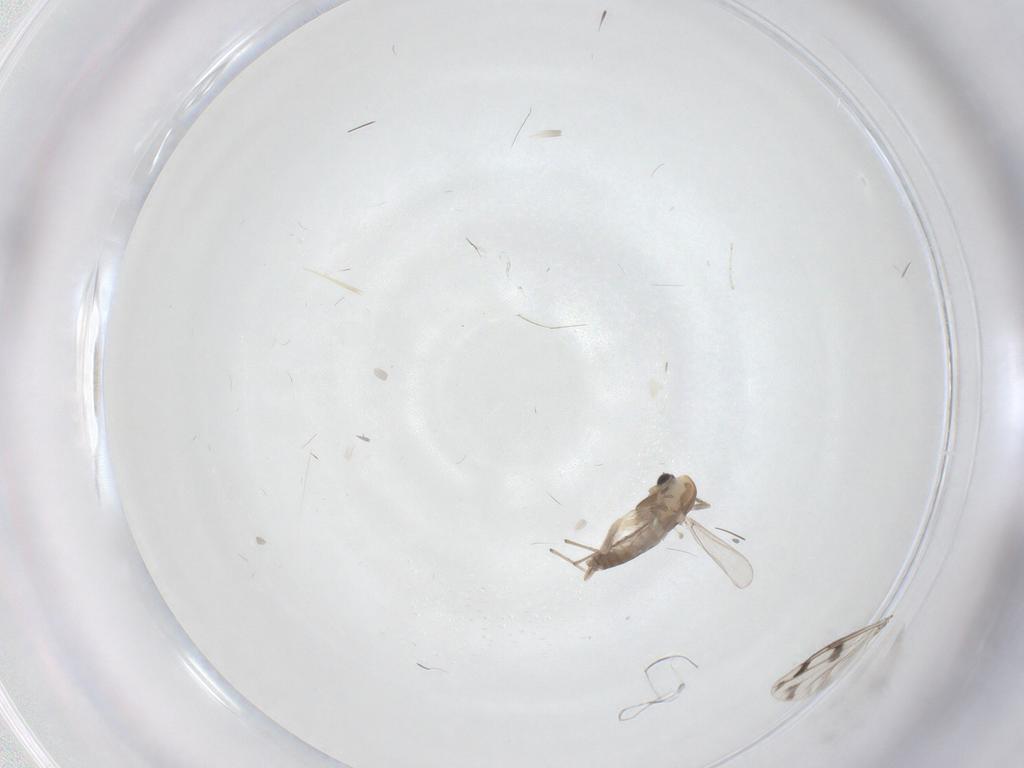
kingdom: Animalia
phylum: Arthropoda
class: Insecta
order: Diptera
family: Chironomidae
